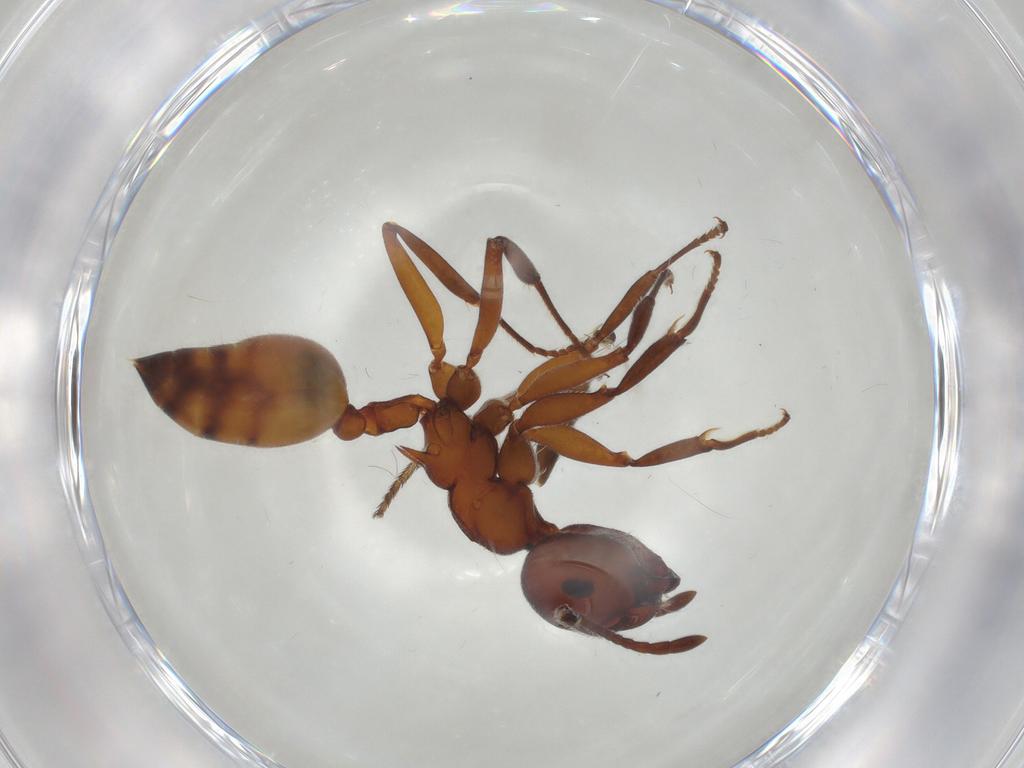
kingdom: Animalia
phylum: Arthropoda
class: Insecta
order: Hymenoptera
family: Formicidae
